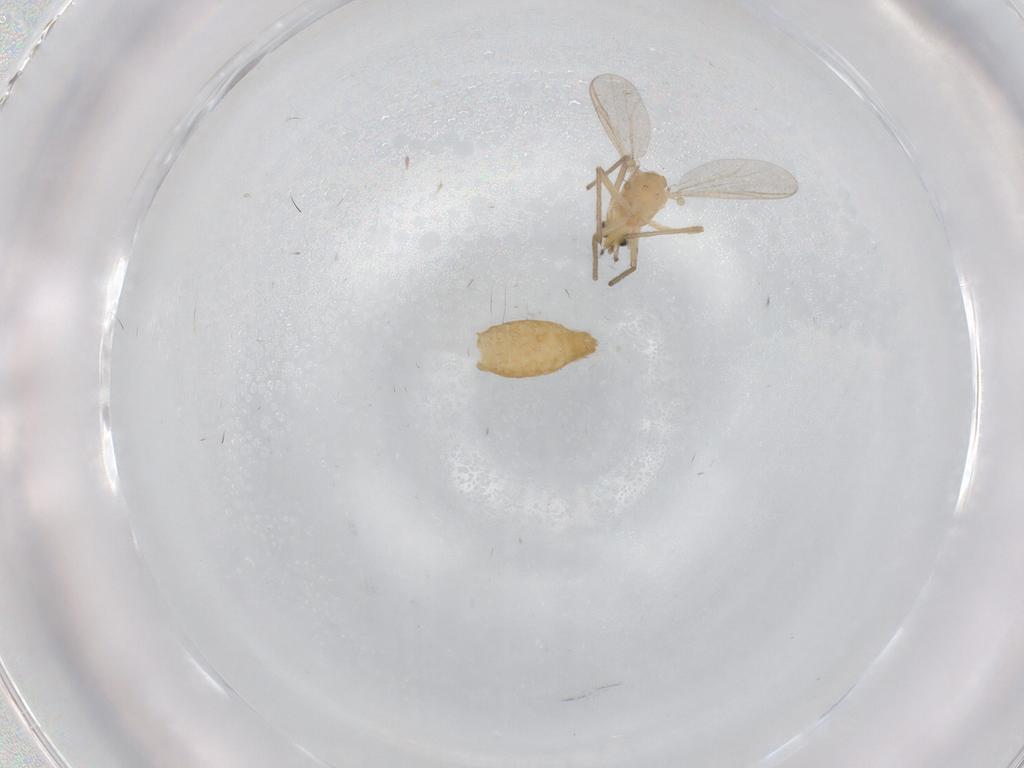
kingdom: Animalia
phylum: Arthropoda
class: Insecta
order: Diptera
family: Chironomidae
